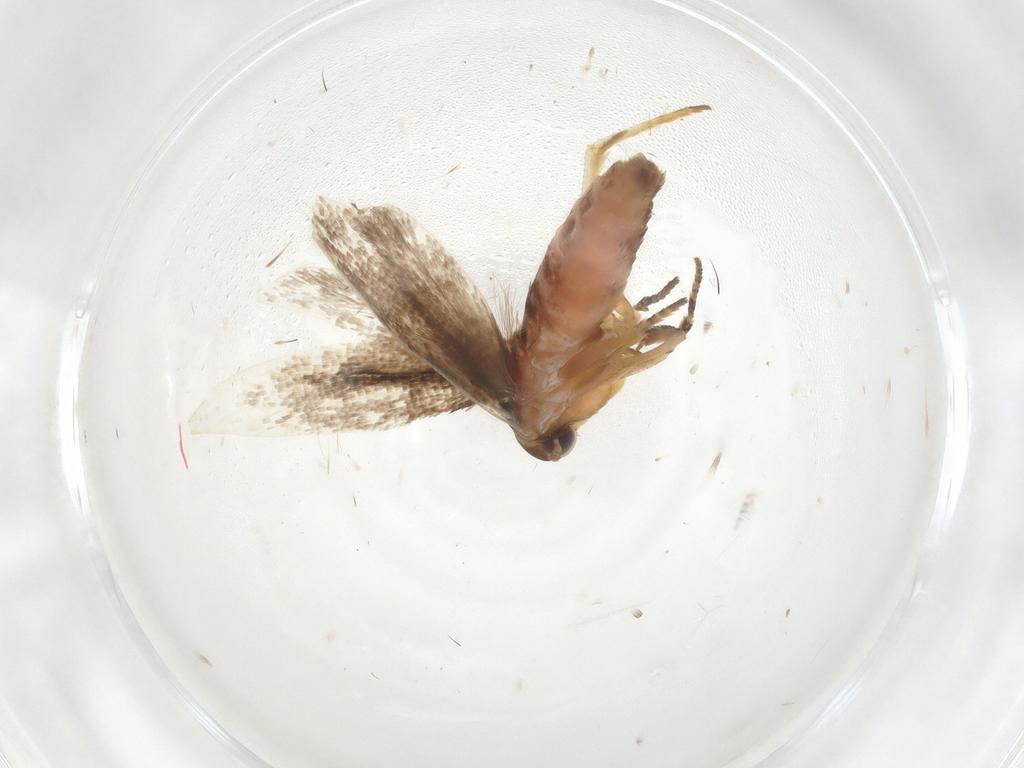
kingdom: Animalia
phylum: Arthropoda
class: Insecta
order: Lepidoptera
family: Gelechiidae
